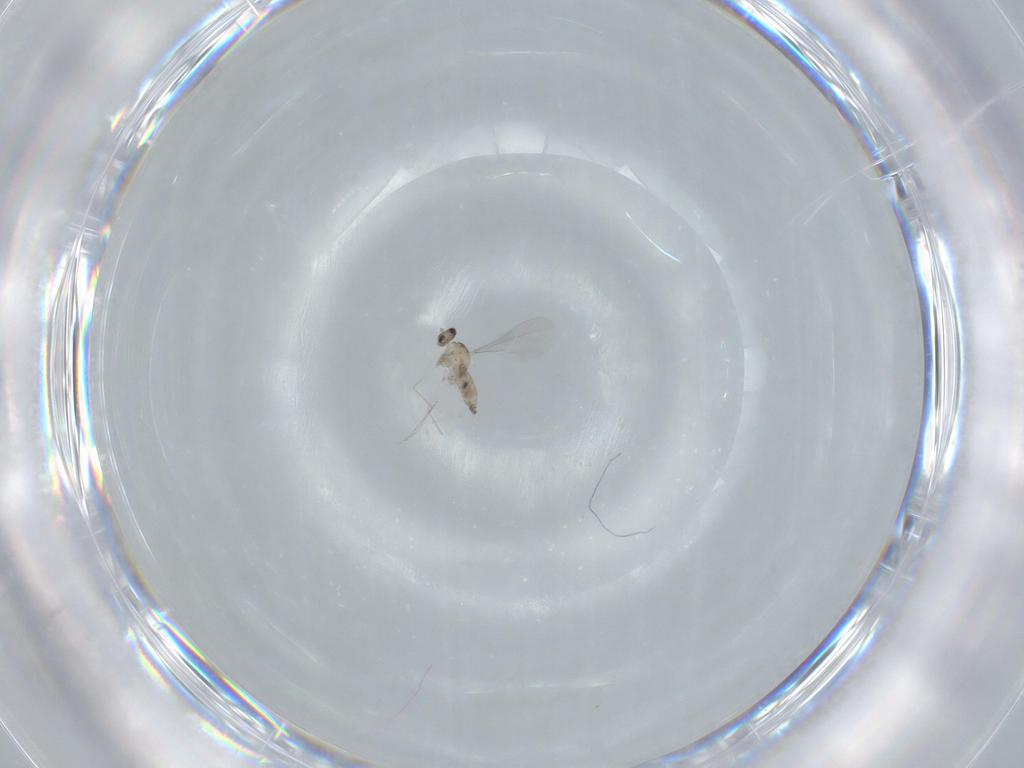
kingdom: Animalia
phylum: Arthropoda
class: Insecta
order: Diptera
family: Cecidomyiidae
